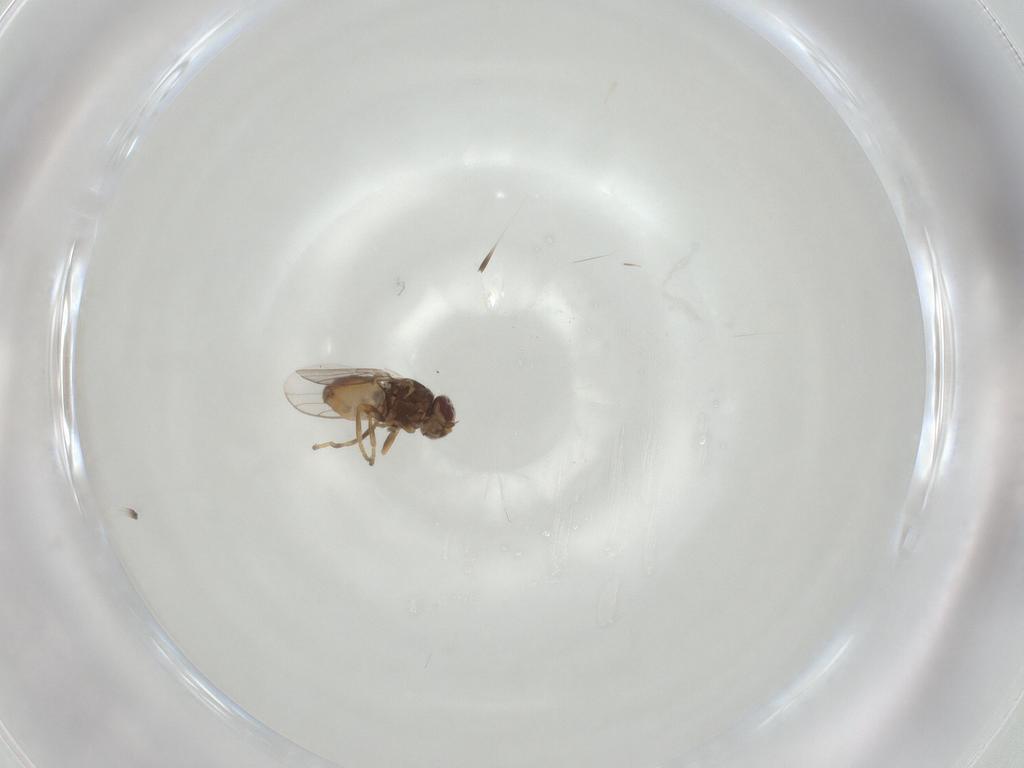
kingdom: Animalia
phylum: Arthropoda
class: Insecta
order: Diptera
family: Chloropidae
